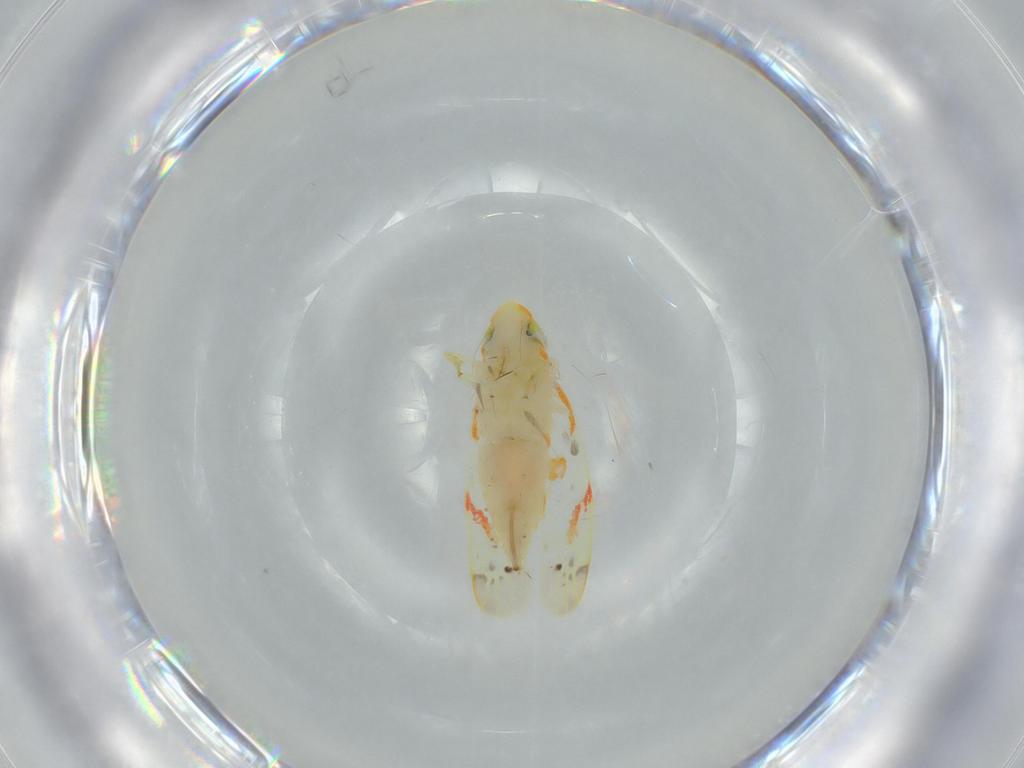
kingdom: Animalia
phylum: Arthropoda
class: Insecta
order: Hemiptera
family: Cicadellidae
